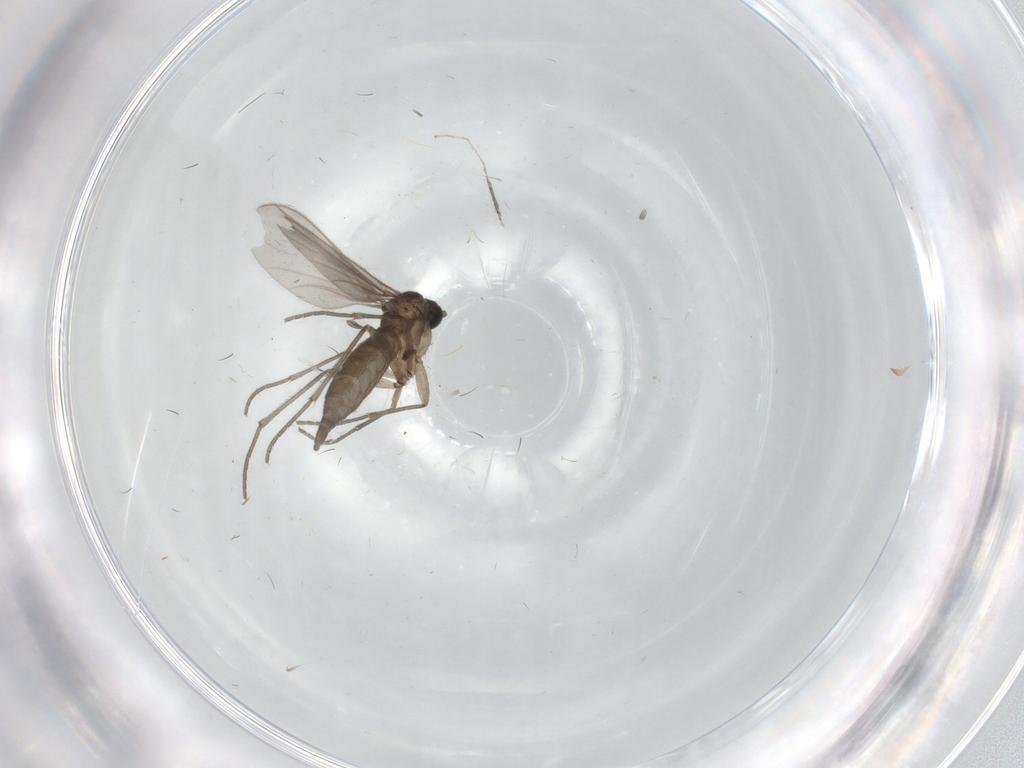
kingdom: Animalia
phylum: Arthropoda
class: Insecta
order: Diptera
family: Sciaridae
